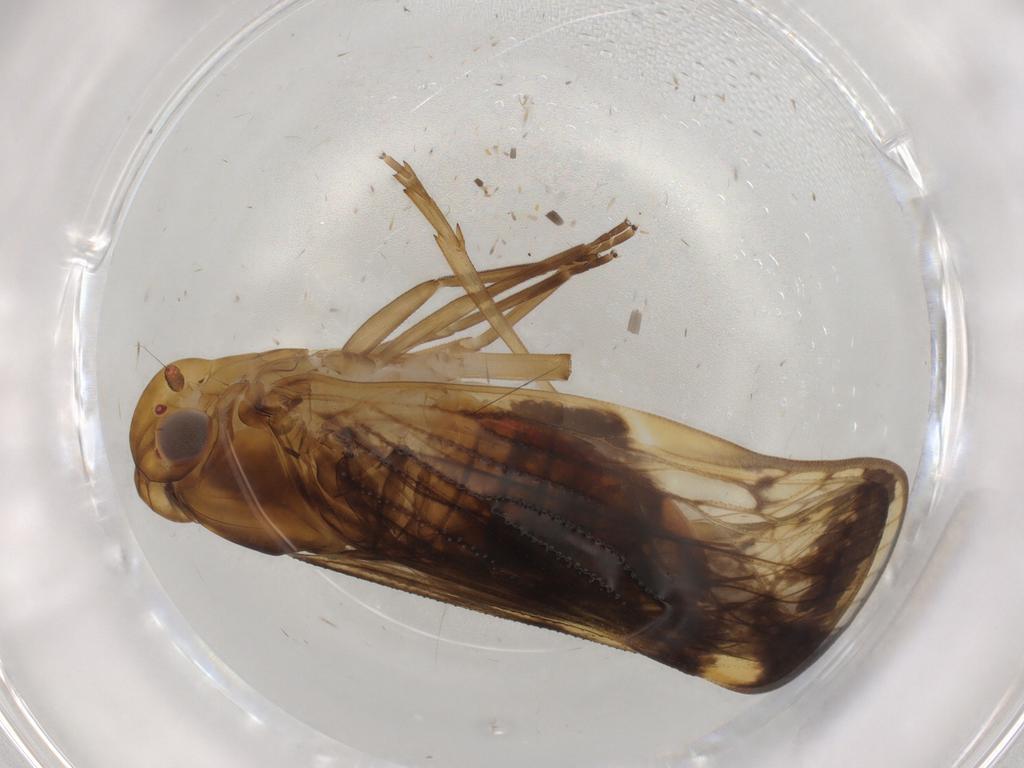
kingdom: Animalia
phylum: Arthropoda
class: Insecta
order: Hemiptera
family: Cixiidae
